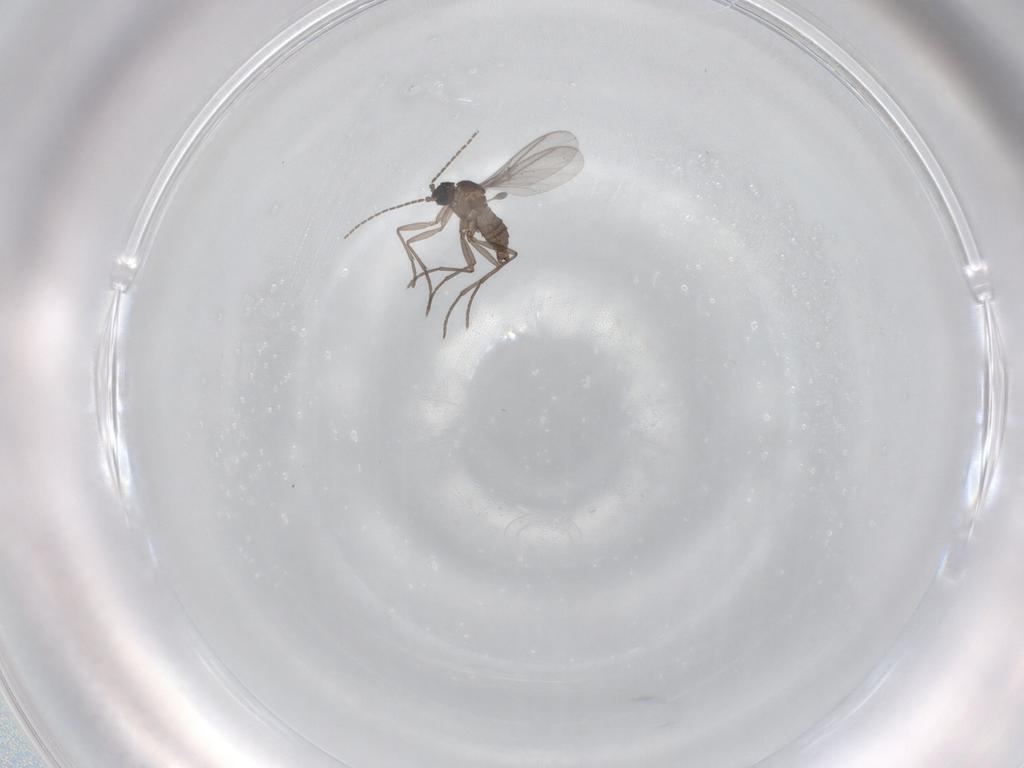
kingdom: Animalia
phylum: Arthropoda
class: Insecta
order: Diptera
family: Sciaridae
